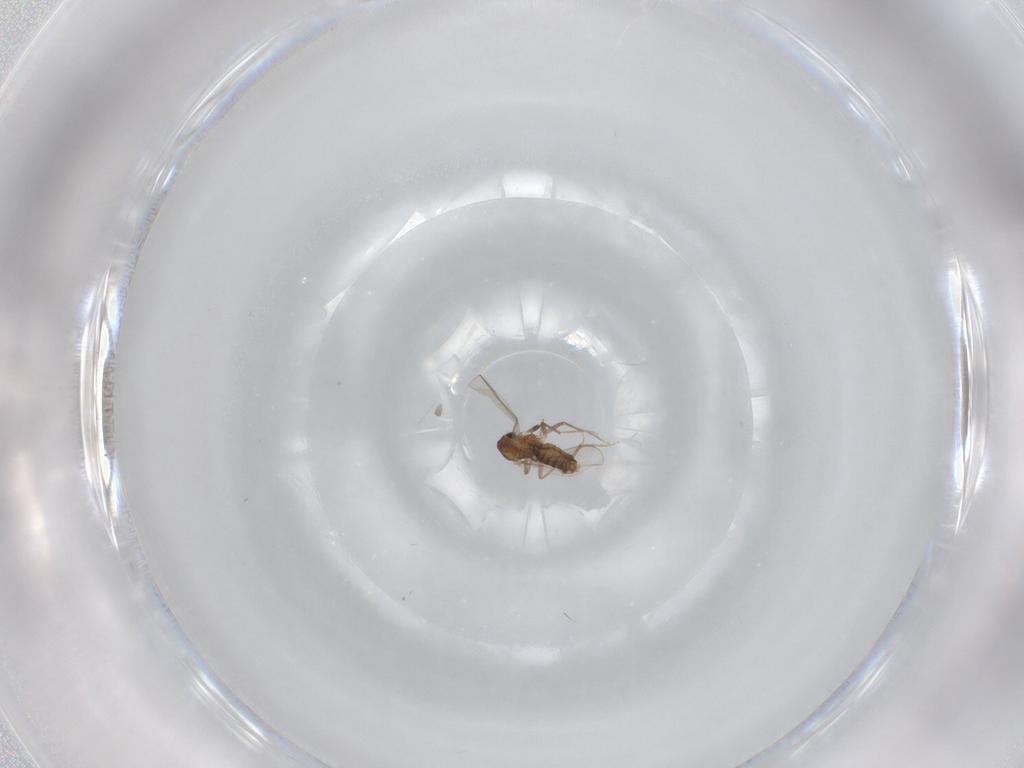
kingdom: Animalia
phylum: Arthropoda
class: Insecta
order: Diptera
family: Chironomidae
